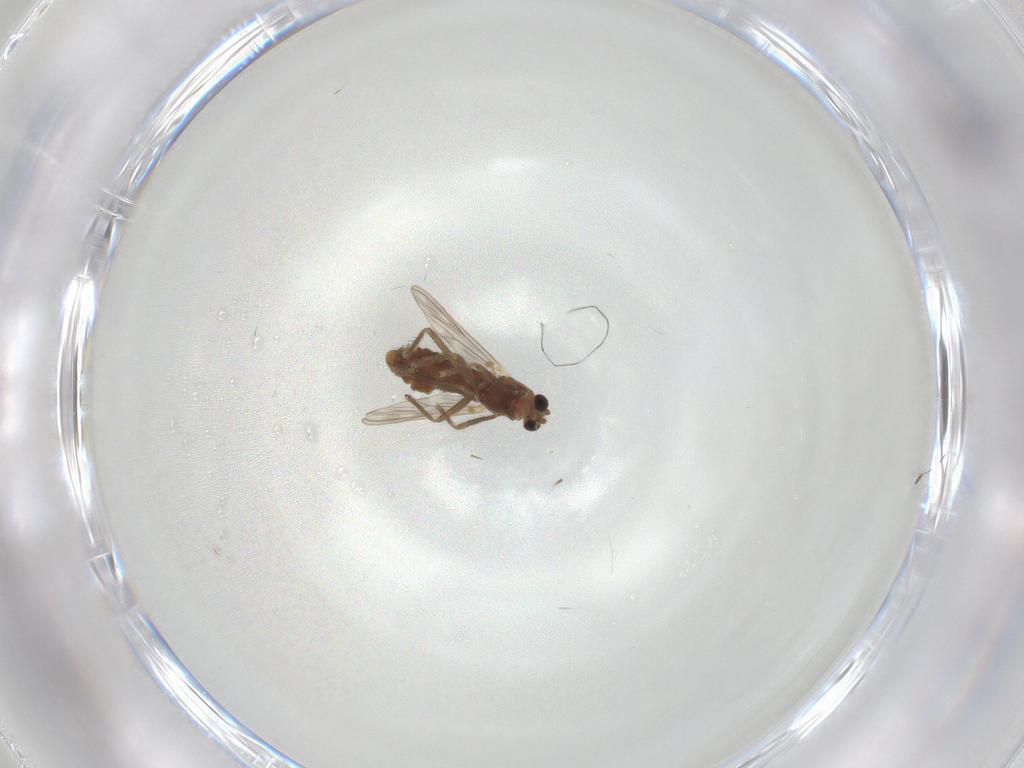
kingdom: Animalia
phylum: Arthropoda
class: Insecta
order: Diptera
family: Chironomidae
